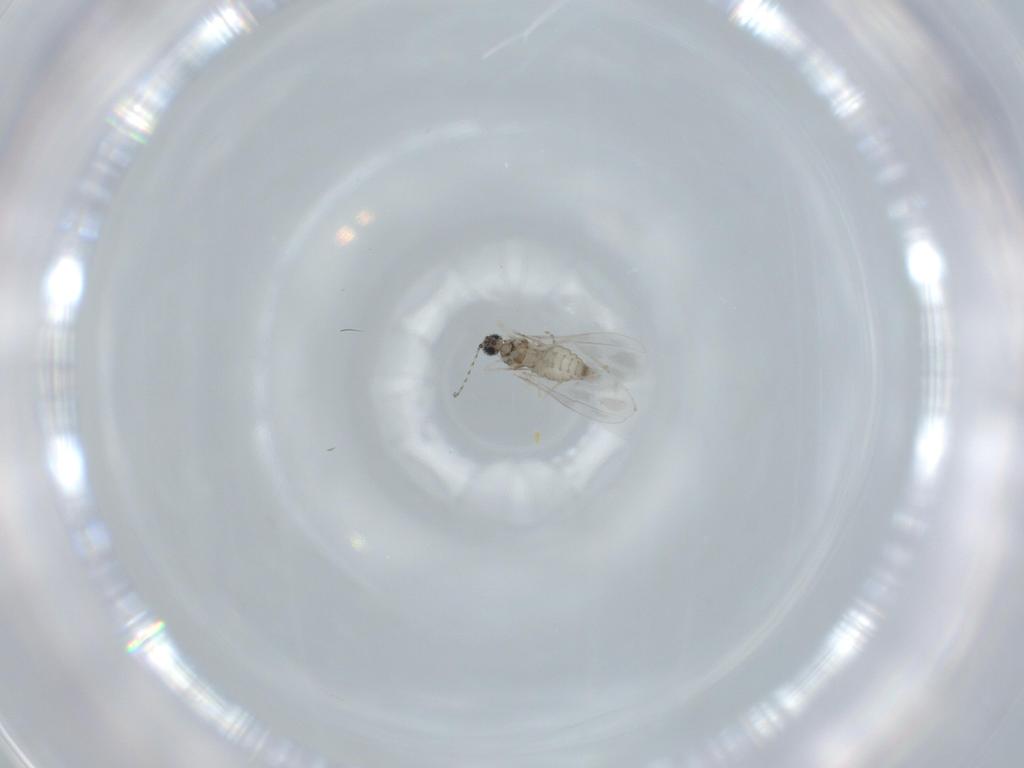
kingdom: Animalia
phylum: Arthropoda
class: Insecta
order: Diptera
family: Cecidomyiidae
